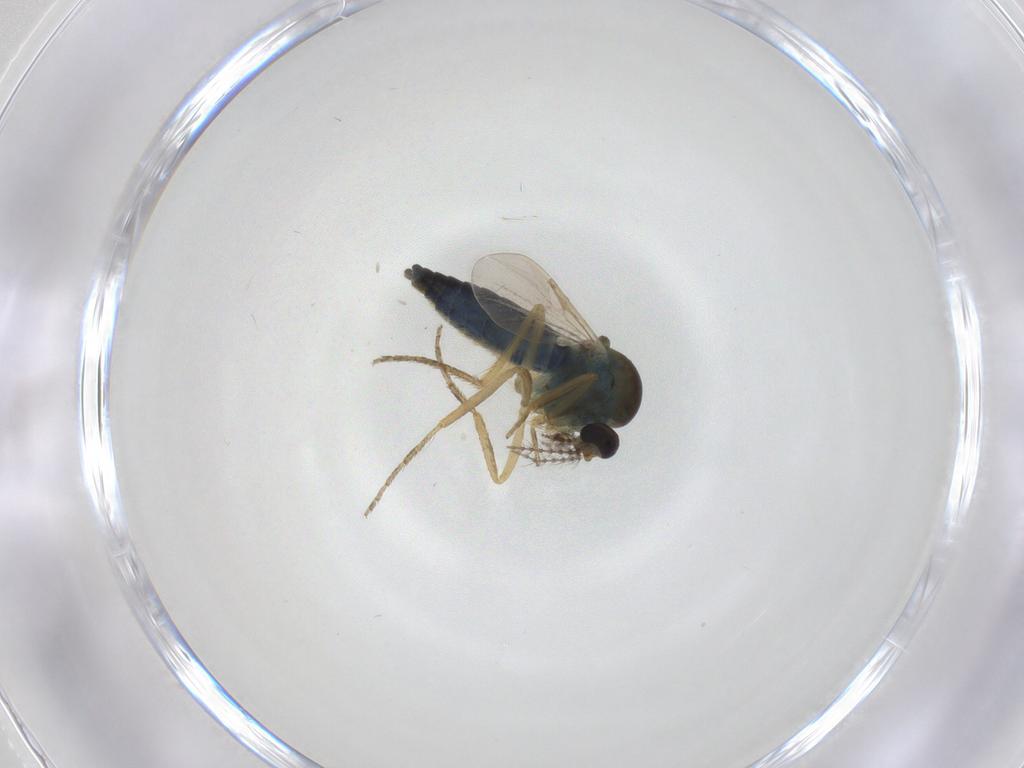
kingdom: Animalia
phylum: Arthropoda
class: Insecta
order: Diptera
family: Ceratopogonidae
